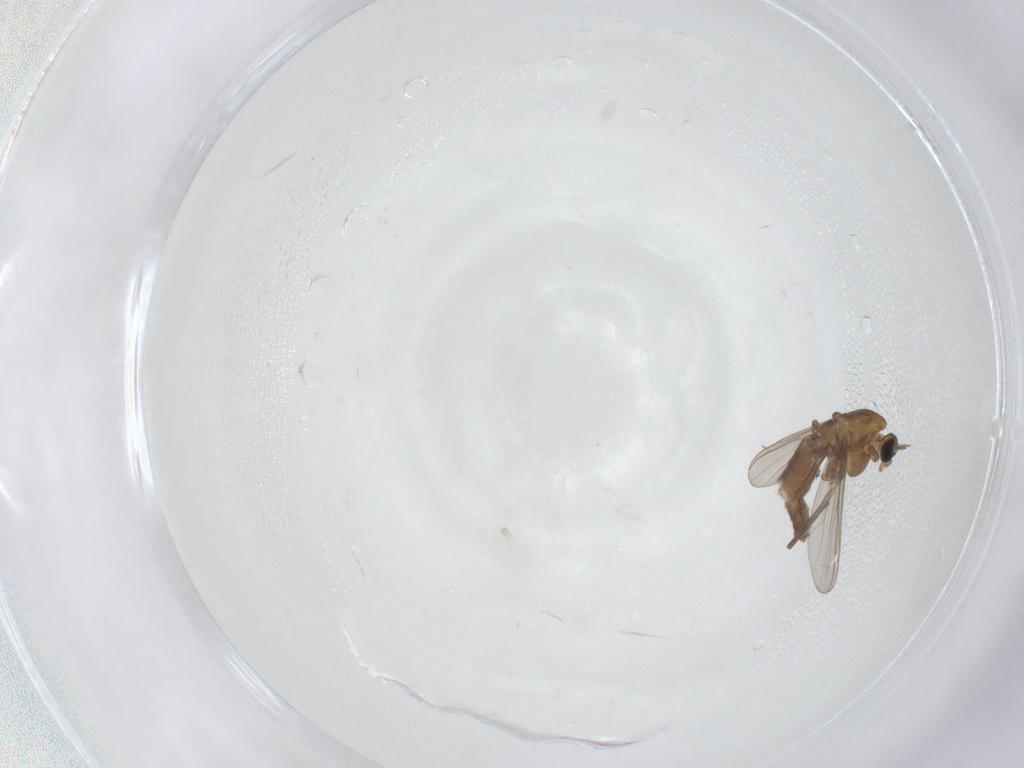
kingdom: Animalia
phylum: Arthropoda
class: Insecta
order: Diptera
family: Chironomidae
